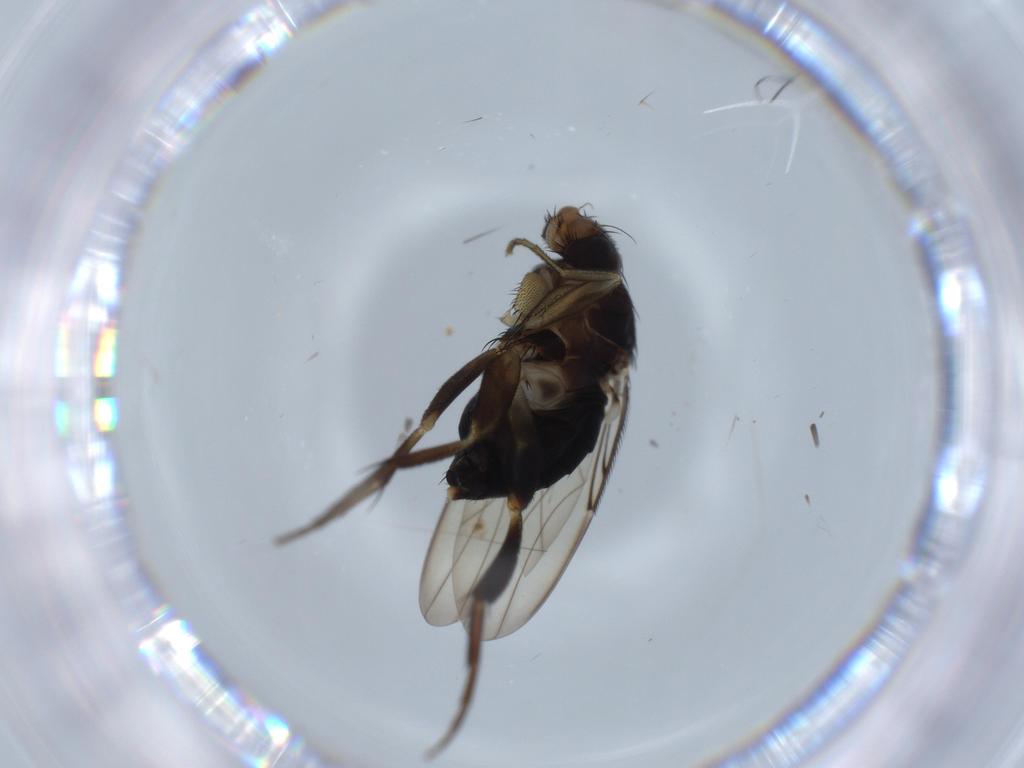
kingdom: Animalia
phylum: Arthropoda
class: Insecta
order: Diptera
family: Phoridae
